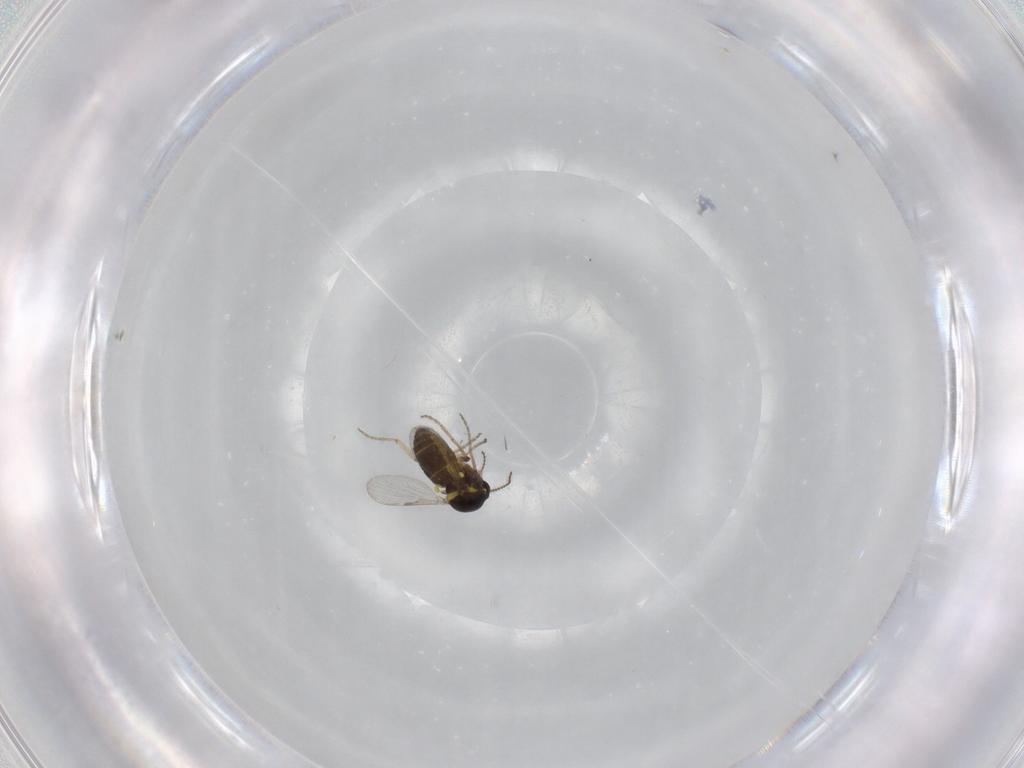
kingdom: Animalia
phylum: Arthropoda
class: Insecta
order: Diptera
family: Ceratopogonidae
